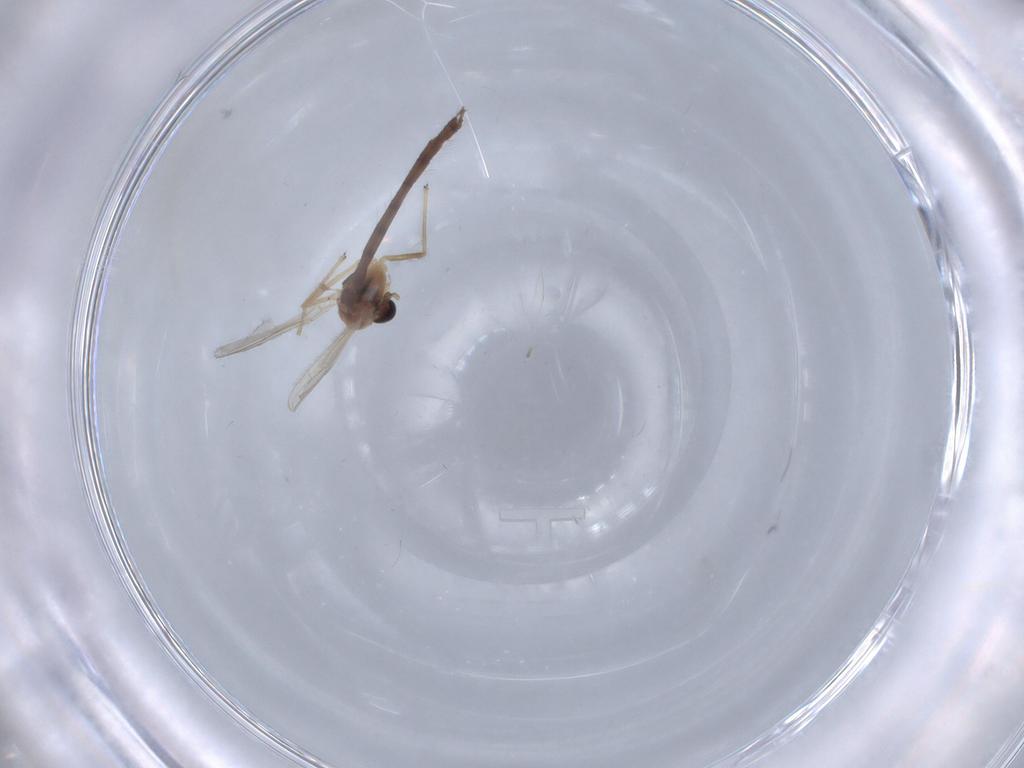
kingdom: Animalia
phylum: Arthropoda
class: Insecta
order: Diptera
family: Chironomidae
